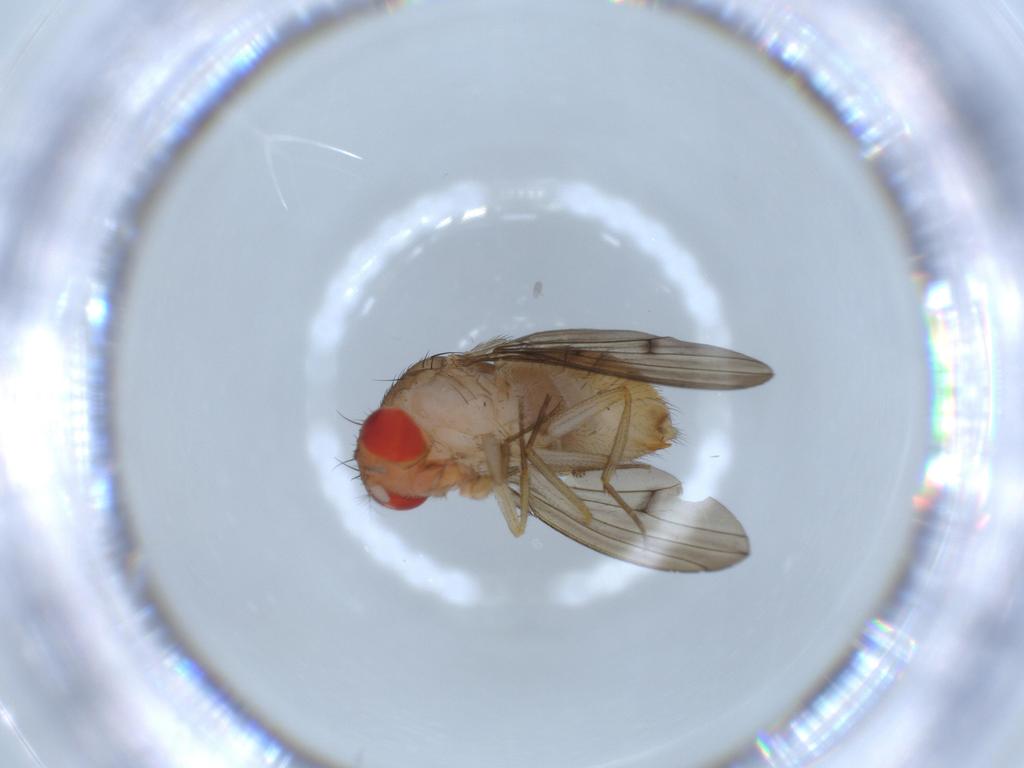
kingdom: Animalia
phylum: Arthropoda
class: Insecta
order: Diptera
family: Drosophilidae
